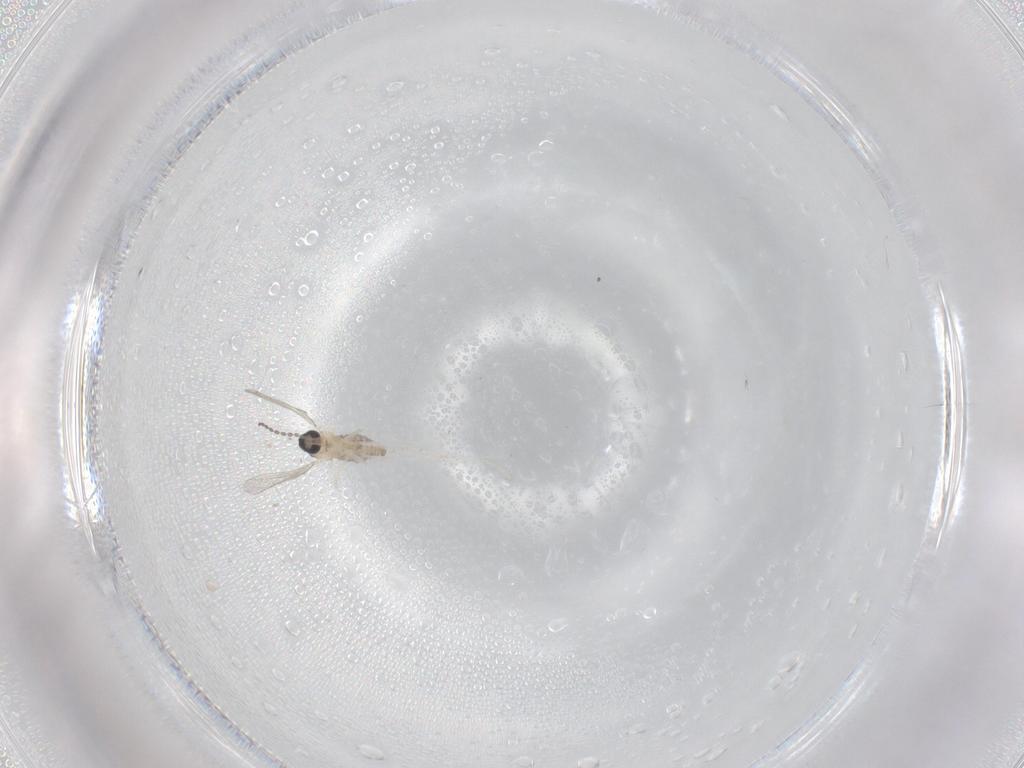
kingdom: Animalia
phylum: Arthropoda
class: Insecta
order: Diptera
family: Cecidomyiidae
